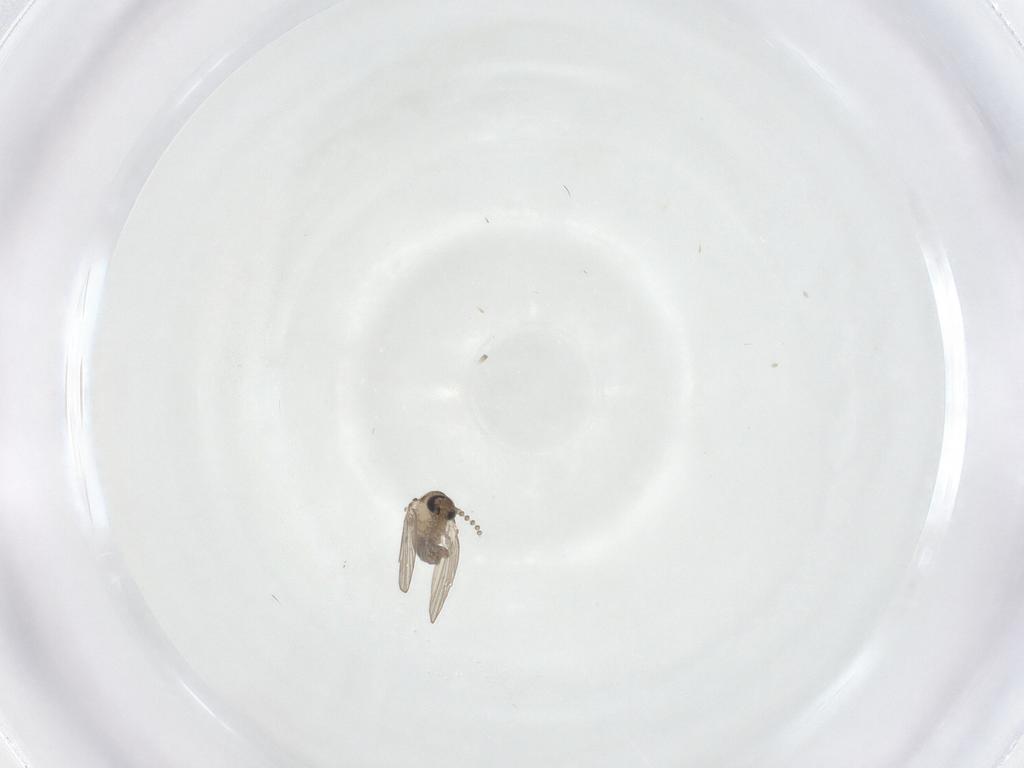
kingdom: Animalia
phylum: Arthropoda
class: Insecta
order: Diptera
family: Psychodidae
